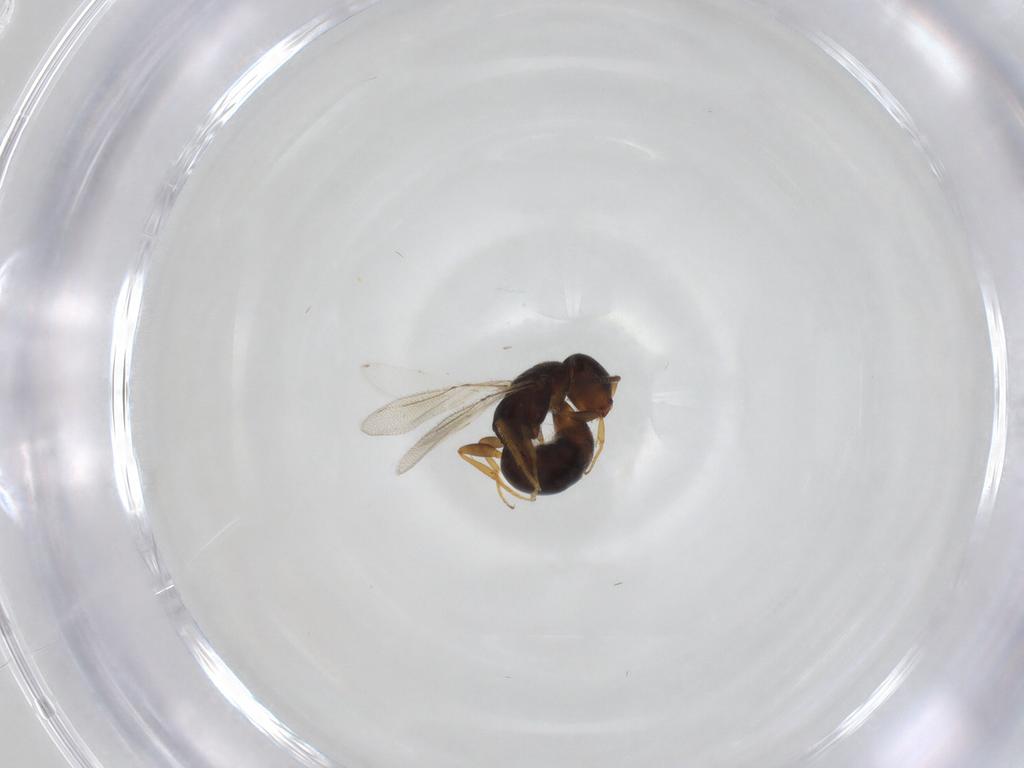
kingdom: Animalia
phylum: Arthropoda
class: Insecta
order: Hymenoptera
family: Bethylidae
